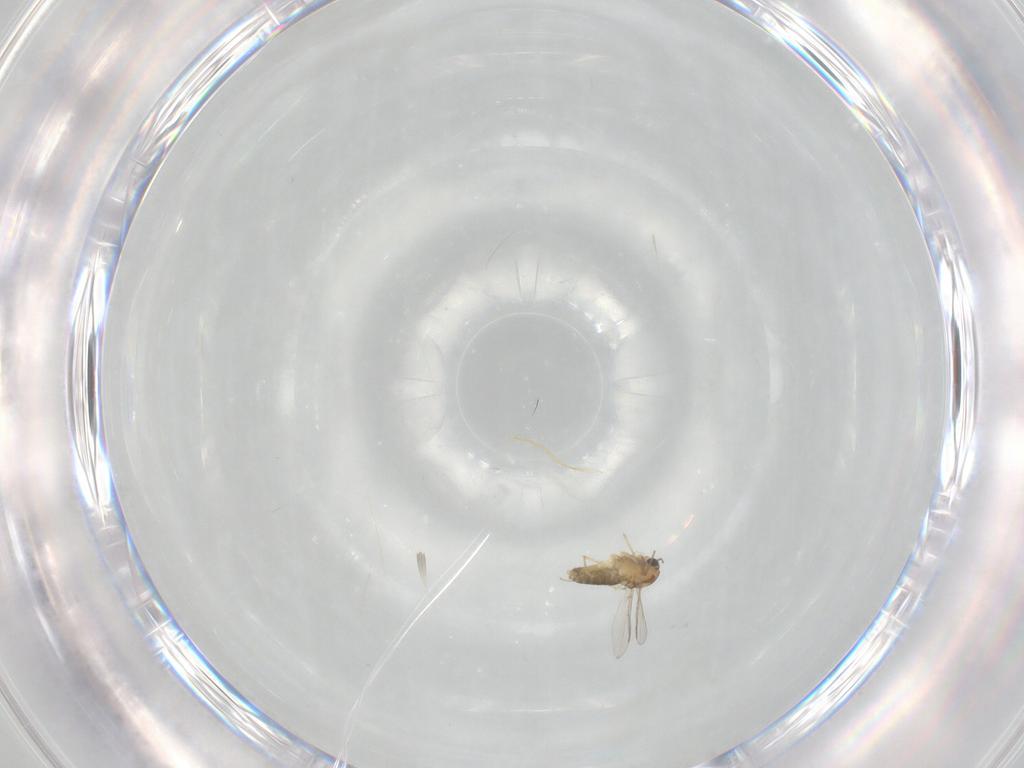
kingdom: Animalia
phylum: Arthropoda
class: Insecta
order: Diptera
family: Chironomidae
